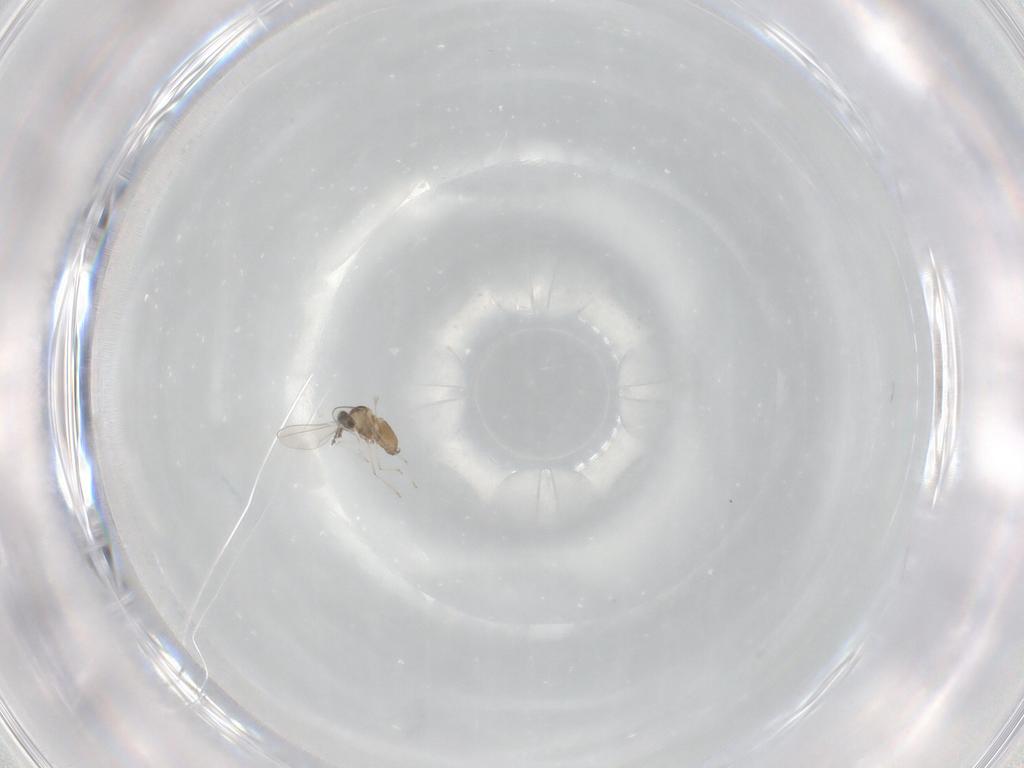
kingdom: Animalia
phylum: Arthropoda
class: Insecta
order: Diptera
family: Cecidomyiidae
